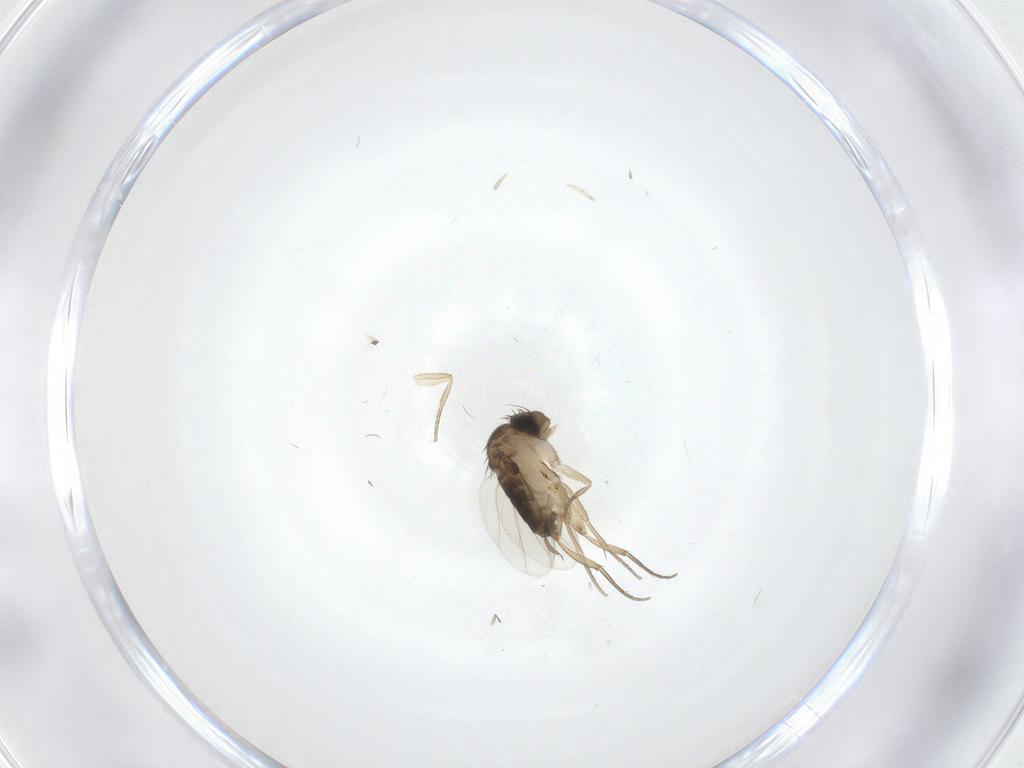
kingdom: Animalia
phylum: Arthropoda
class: Insecta
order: Diptera
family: Phoridae
